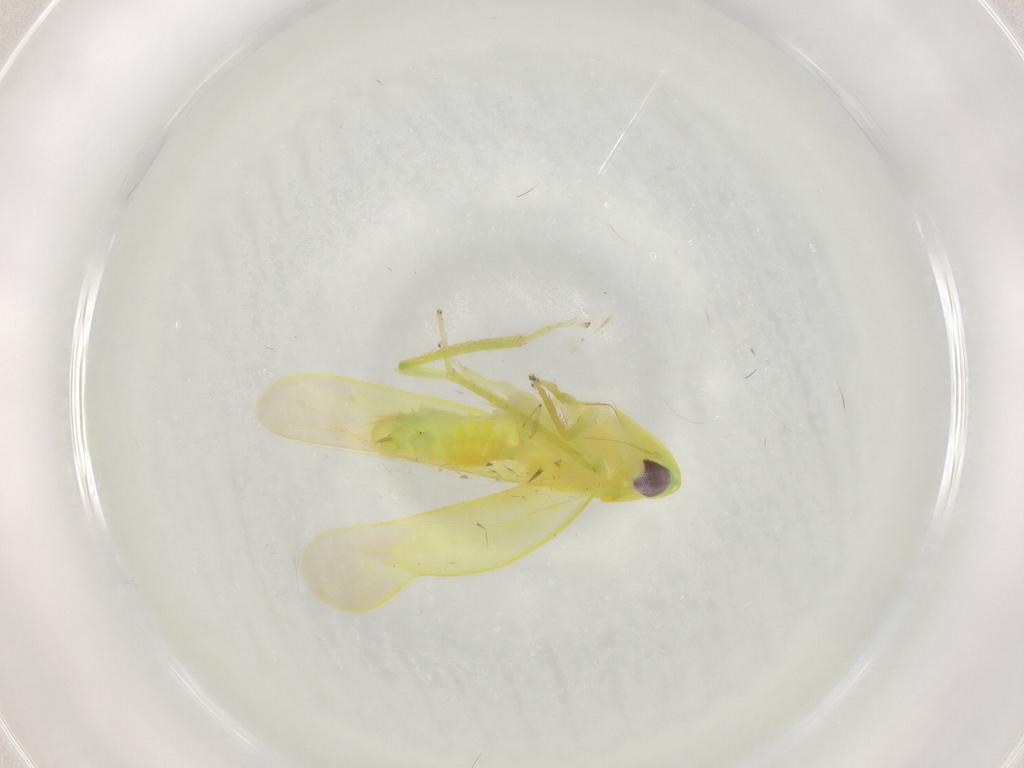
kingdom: Animalia
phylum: Arthropoda
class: Insecta
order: Hemiptera
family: Cicadellidae
